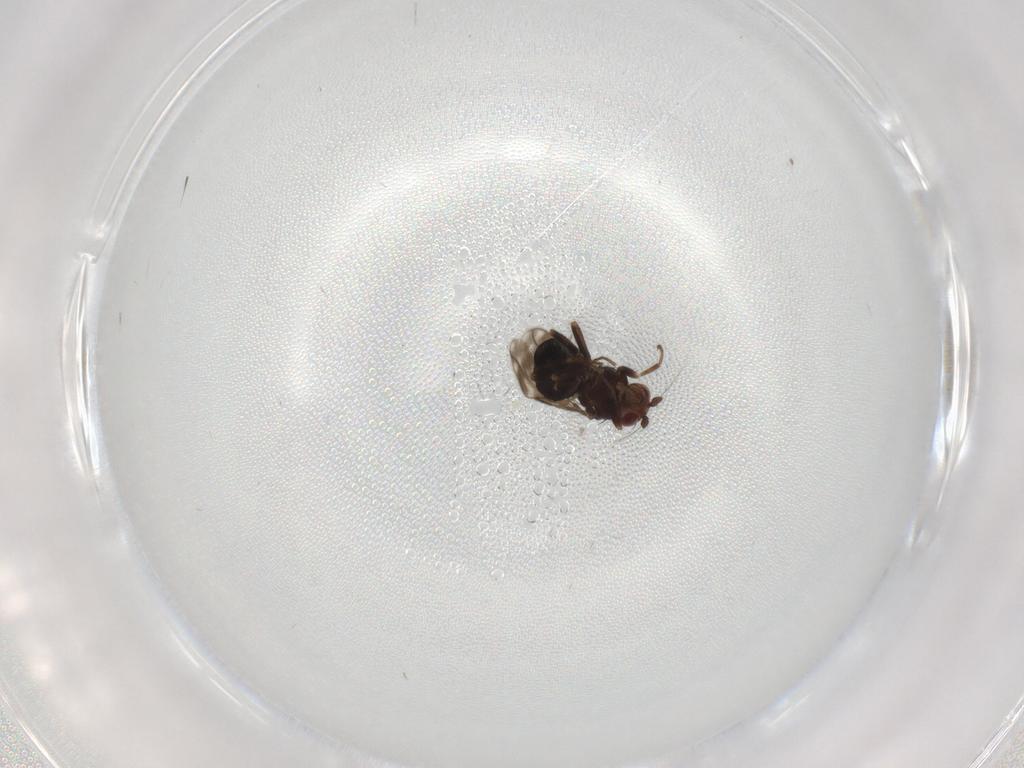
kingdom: Animalia
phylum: Arthropoda
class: Insecta
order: Diptera
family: Phoridae
